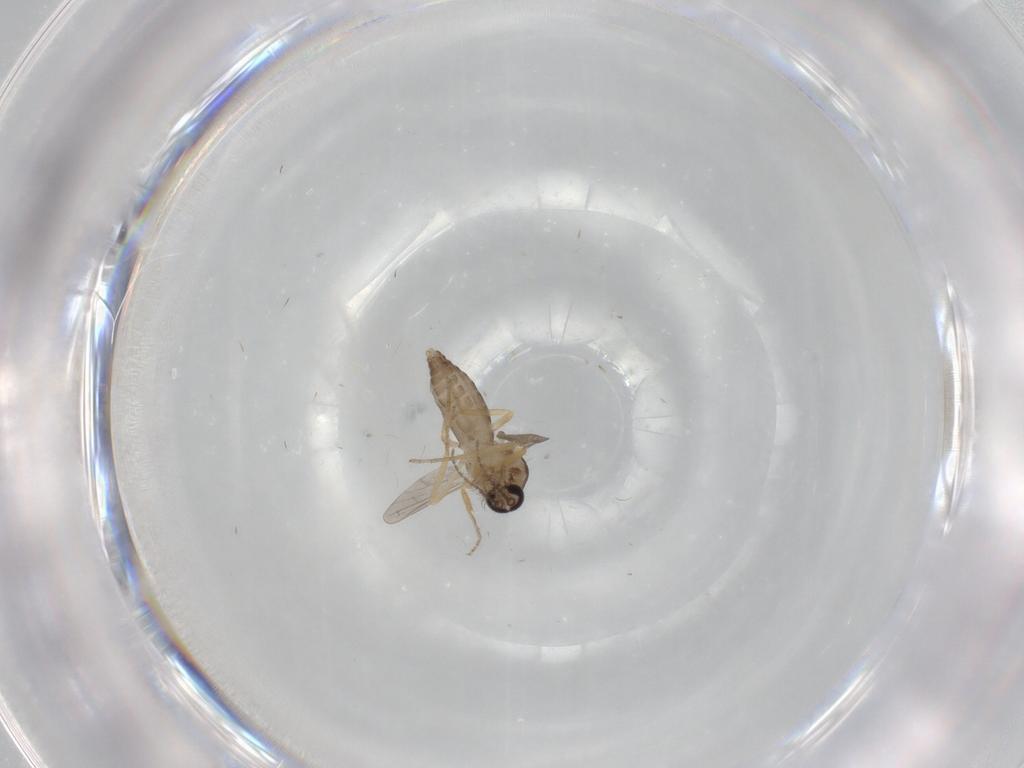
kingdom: Animalia
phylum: Arthropoda
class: Insecta
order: Diptera
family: Ceratopogonidae
